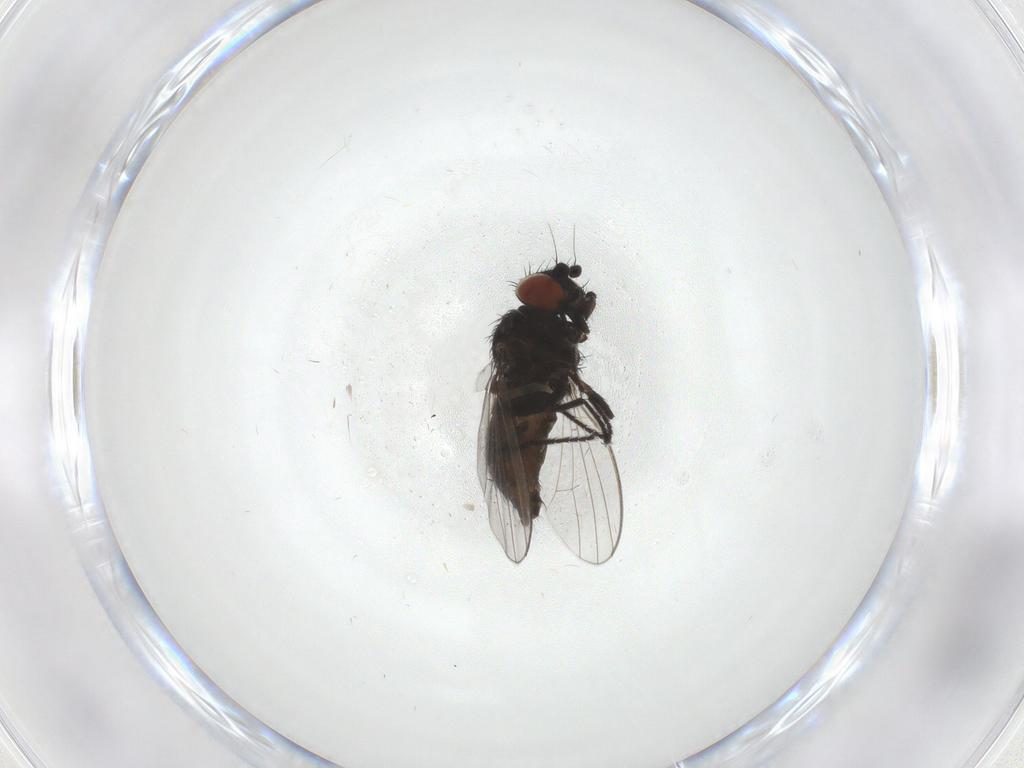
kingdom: Animalia
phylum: Arthropoda
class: Insecta
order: Diptera
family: Milichiidae
